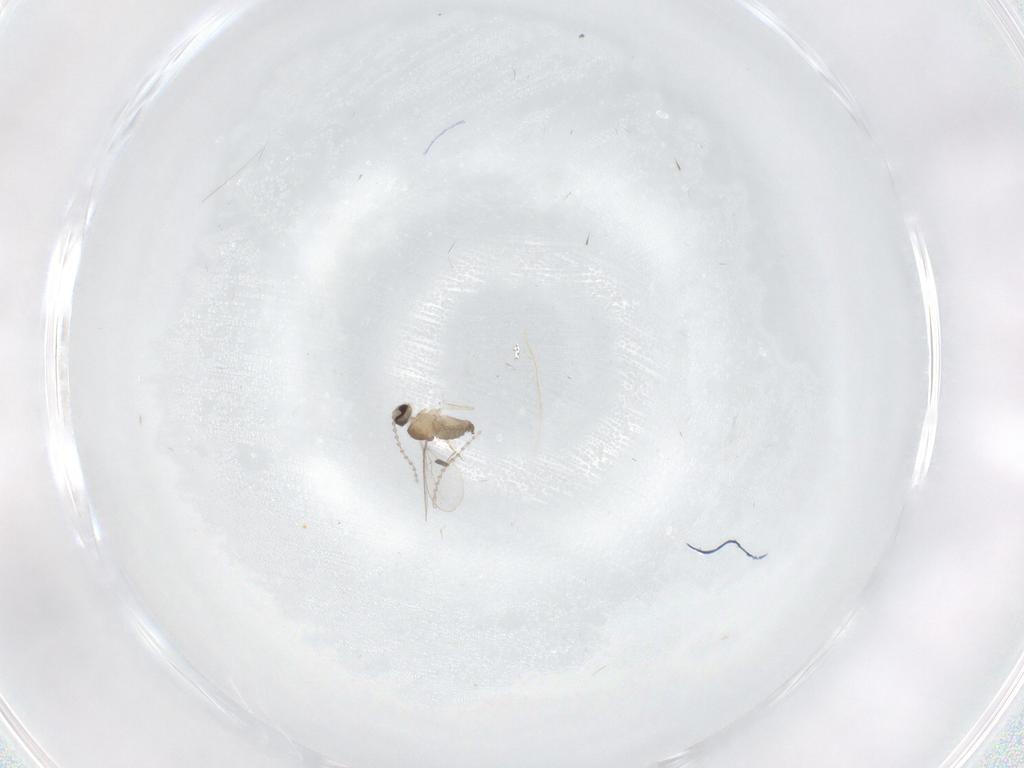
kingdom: Animalia
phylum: Arthropoda
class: Insecta
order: Diptera
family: Cecidomyiidae
